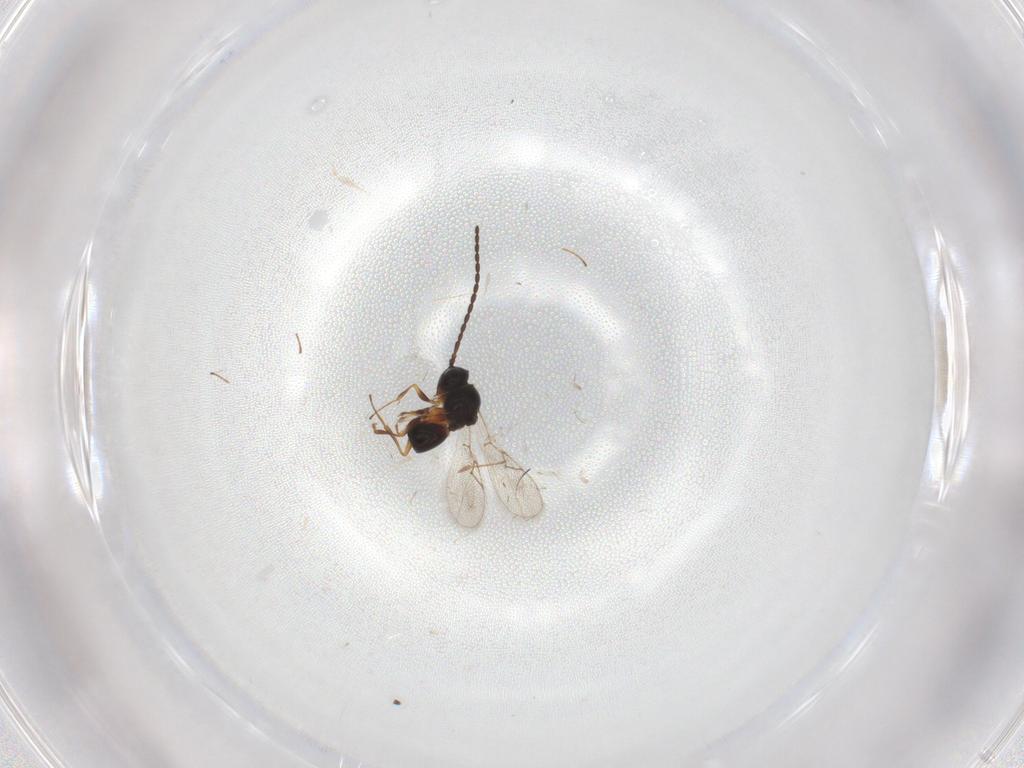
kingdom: Animalia
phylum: Arthropoda
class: Insecta
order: Hymenoptera
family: Figitidae
